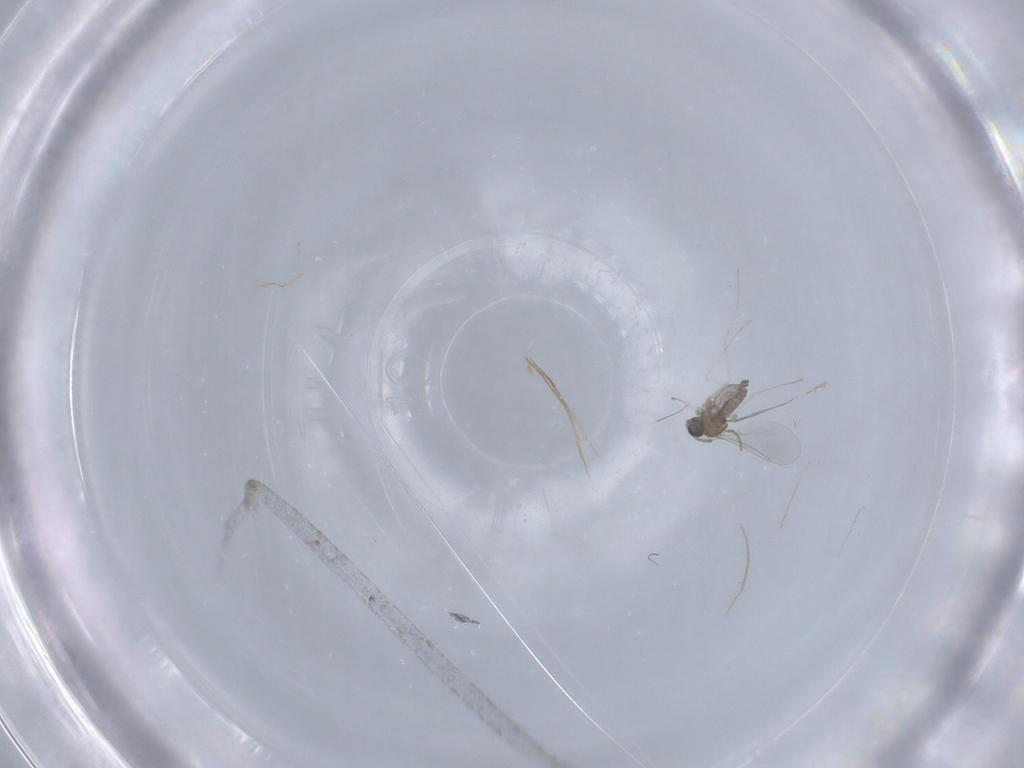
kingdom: Animalia
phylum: Arthropoda
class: Insecta
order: Diptera
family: Cecidomyiidae
